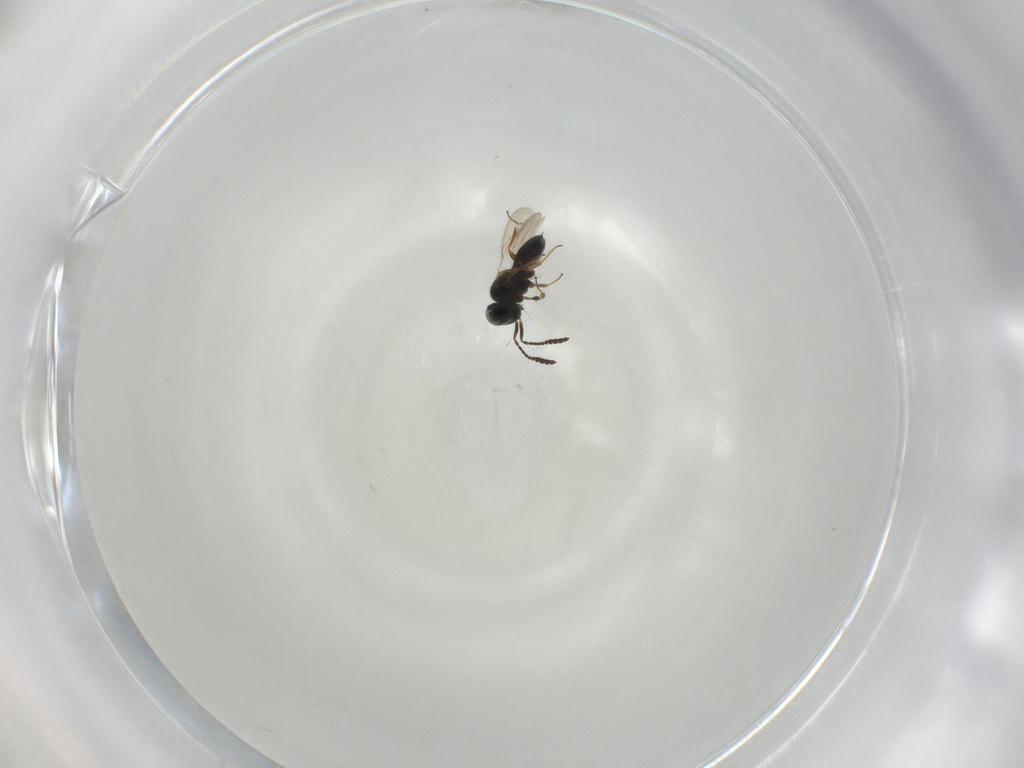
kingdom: Animalia
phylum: Arthropoda
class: Insecta
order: Hymenoptera
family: Scelionidae
